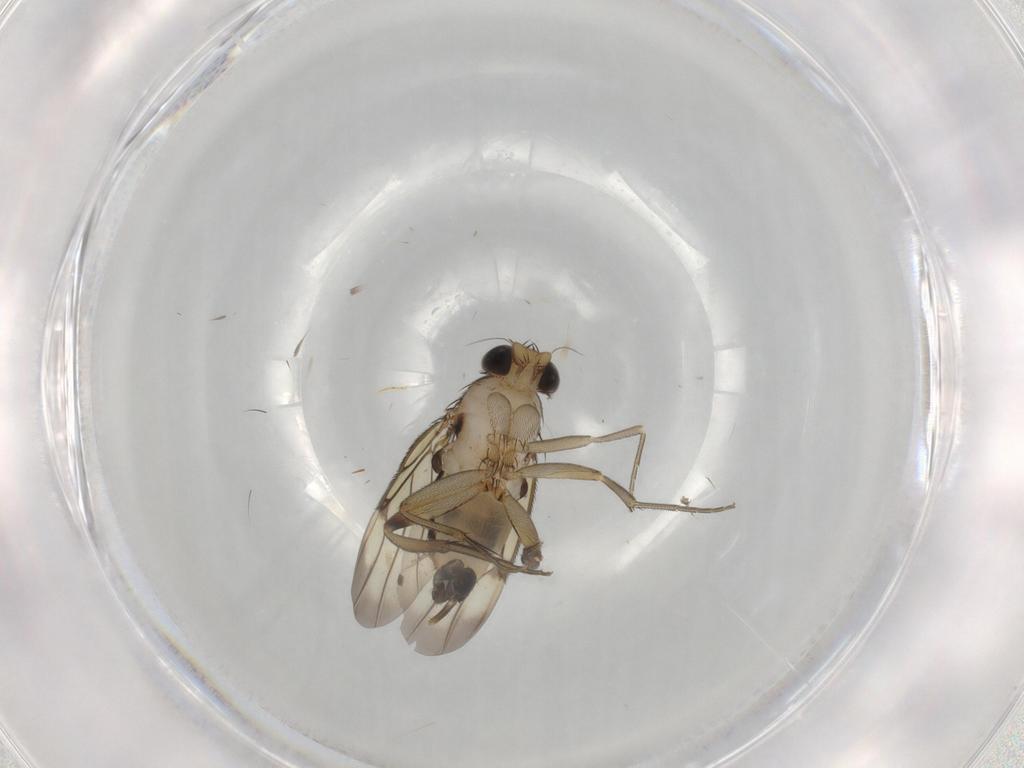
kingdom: Animalia
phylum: Arthropoda
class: Insecta
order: Diptera
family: Phoridae
